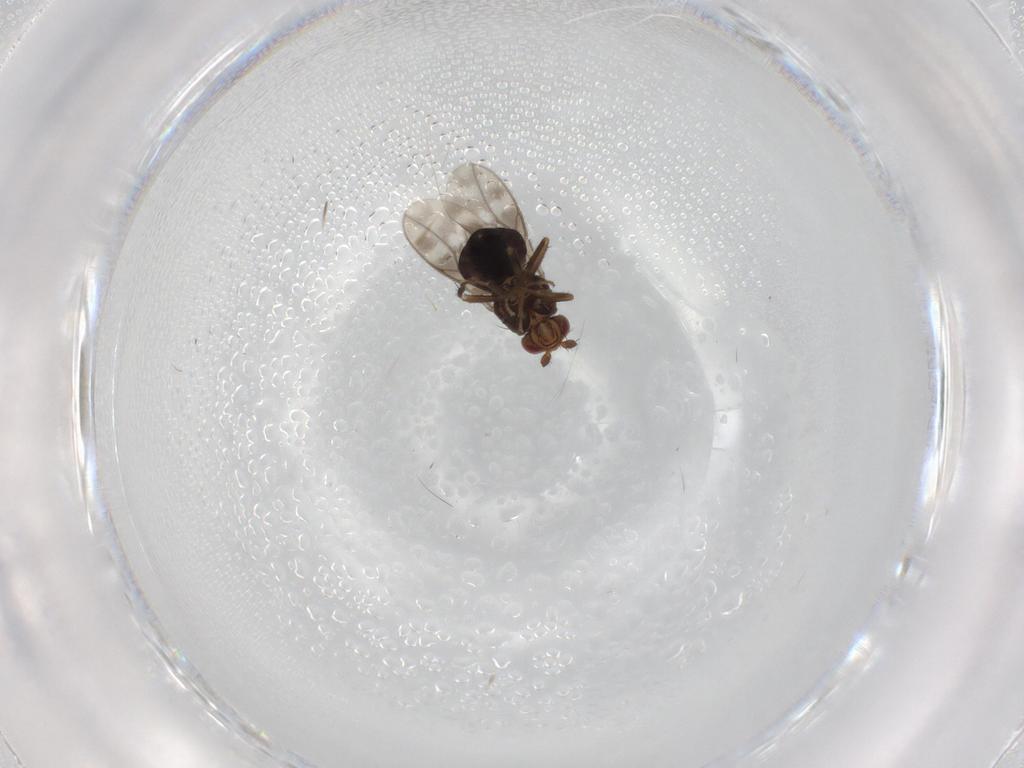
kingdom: Animalia
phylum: Arthropoda
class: Insecta
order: Diptera
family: Sphaeroceridae
